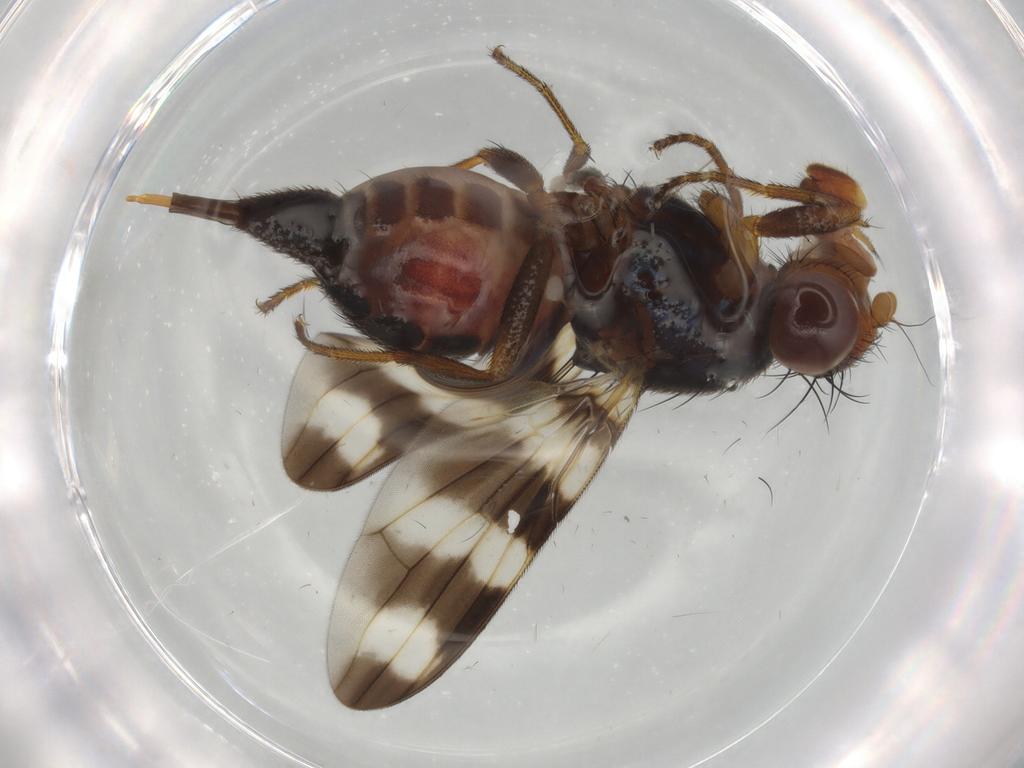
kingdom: Animalia
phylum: Arthropoda
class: Insecta
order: Diptera
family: Ulidiidae
